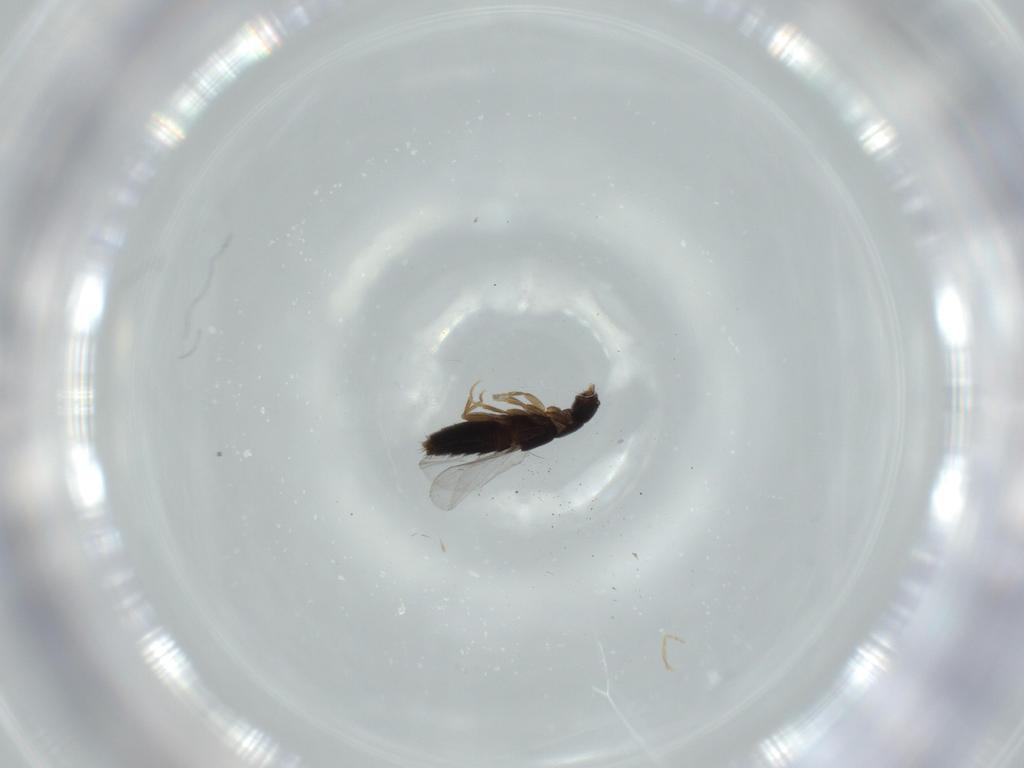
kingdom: Animalia
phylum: Arthropoda
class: Insecta
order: Coleoptera
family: Staphylinidae
